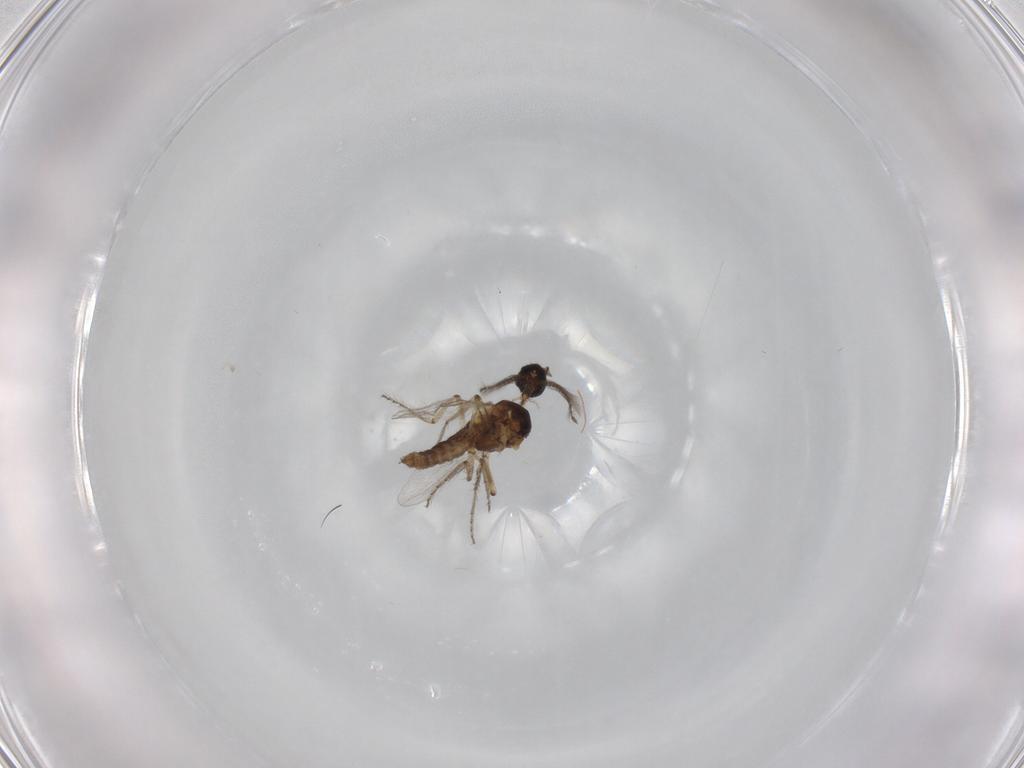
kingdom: Animalia
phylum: Arthropoda
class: Insecta
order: Diptera
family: Ceratopogonidae
